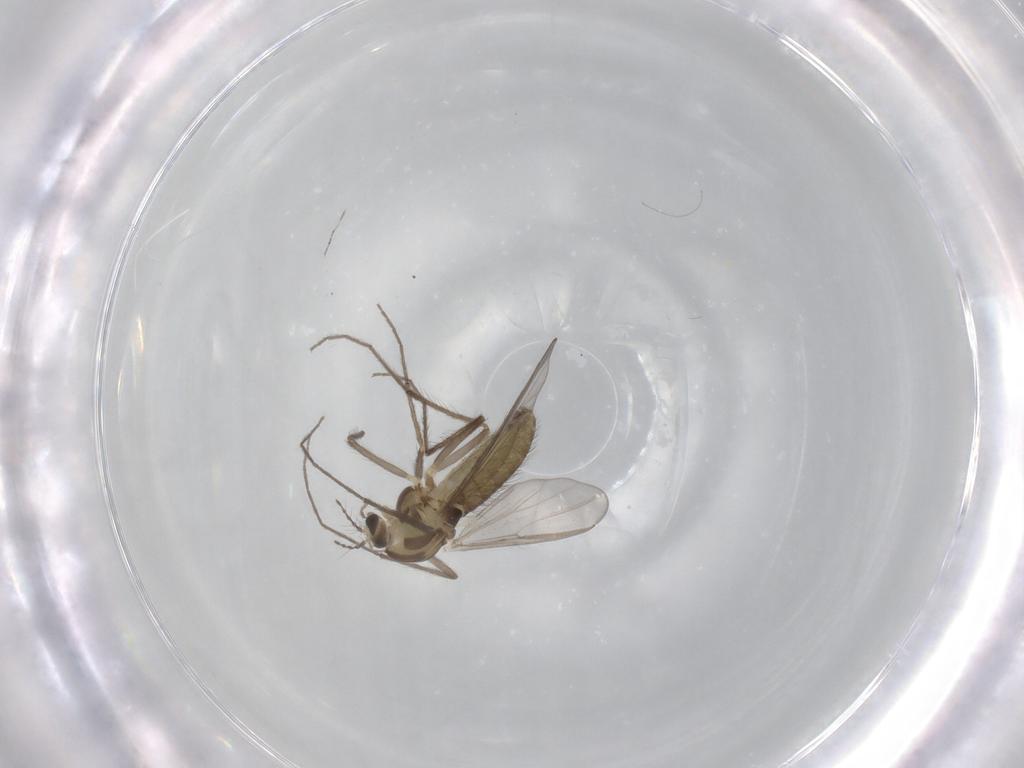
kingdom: Animalia
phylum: Arthropoda
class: Insecta
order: Diptera
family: Chironomidae
